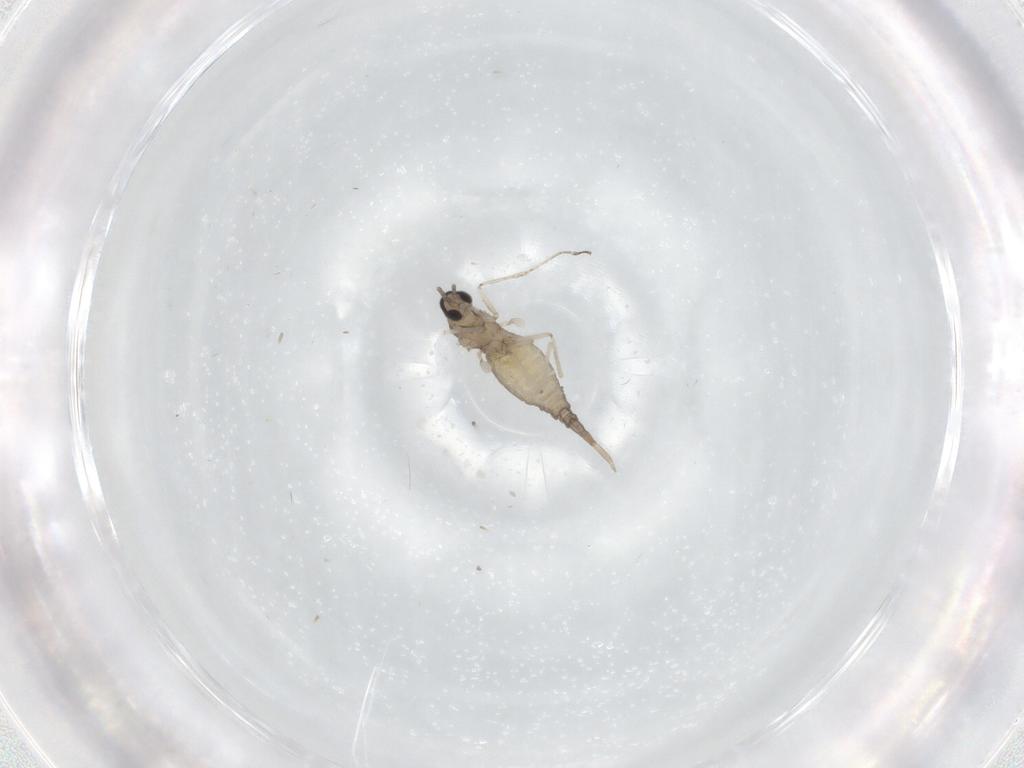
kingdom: Animalia
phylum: Arthropoda
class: Insecta
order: Diptera
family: Cecidomyiidae
